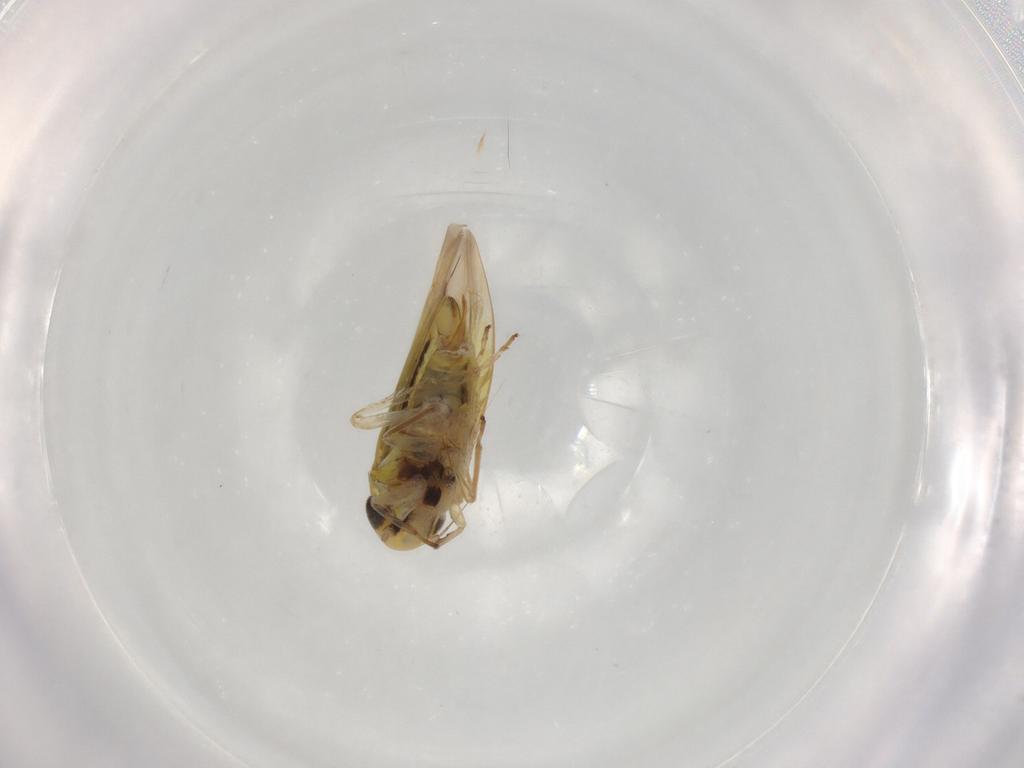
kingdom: Animalia
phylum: Arthropoda
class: Insecta
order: Hemiptera
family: Cicadellidae
